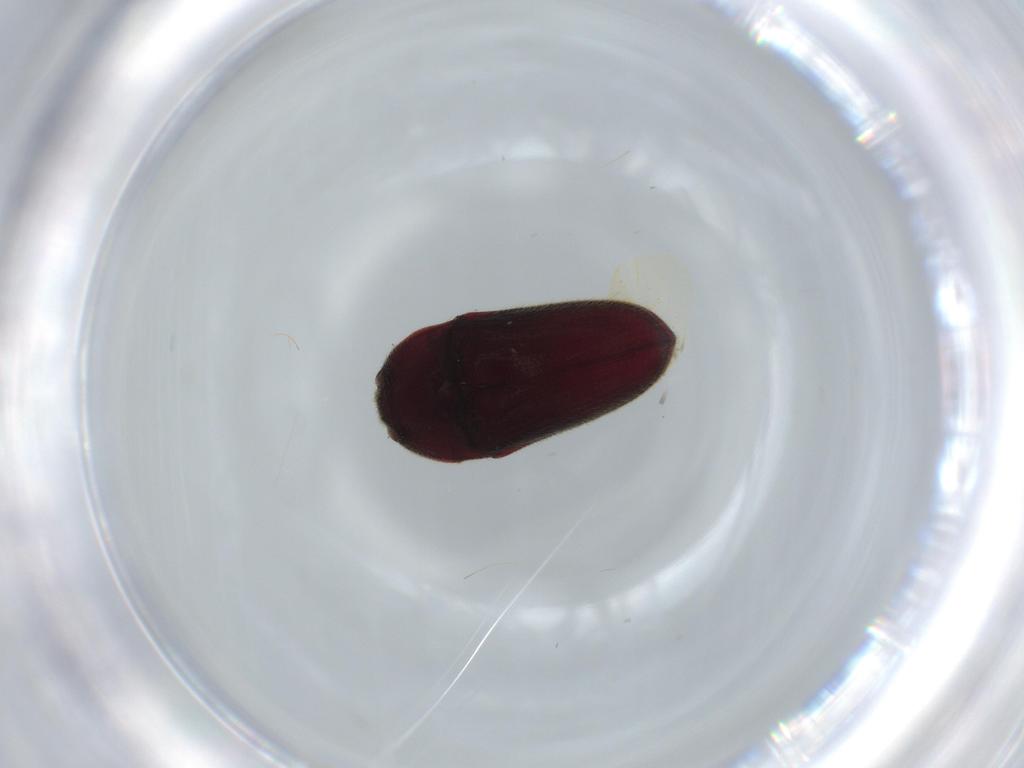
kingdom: Animalia
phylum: Arthropoda
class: Insecta
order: Coleoptera
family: Throscidae
